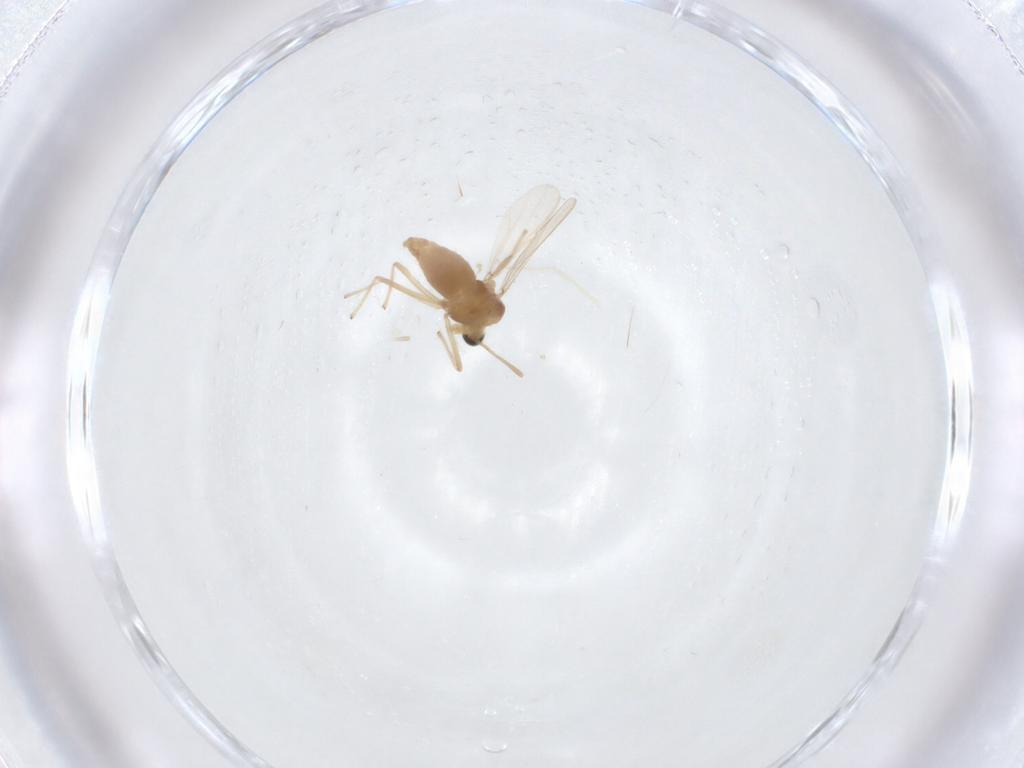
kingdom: Animalia
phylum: Arthropoda
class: Insecta
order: Diptera
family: Chironomidae
